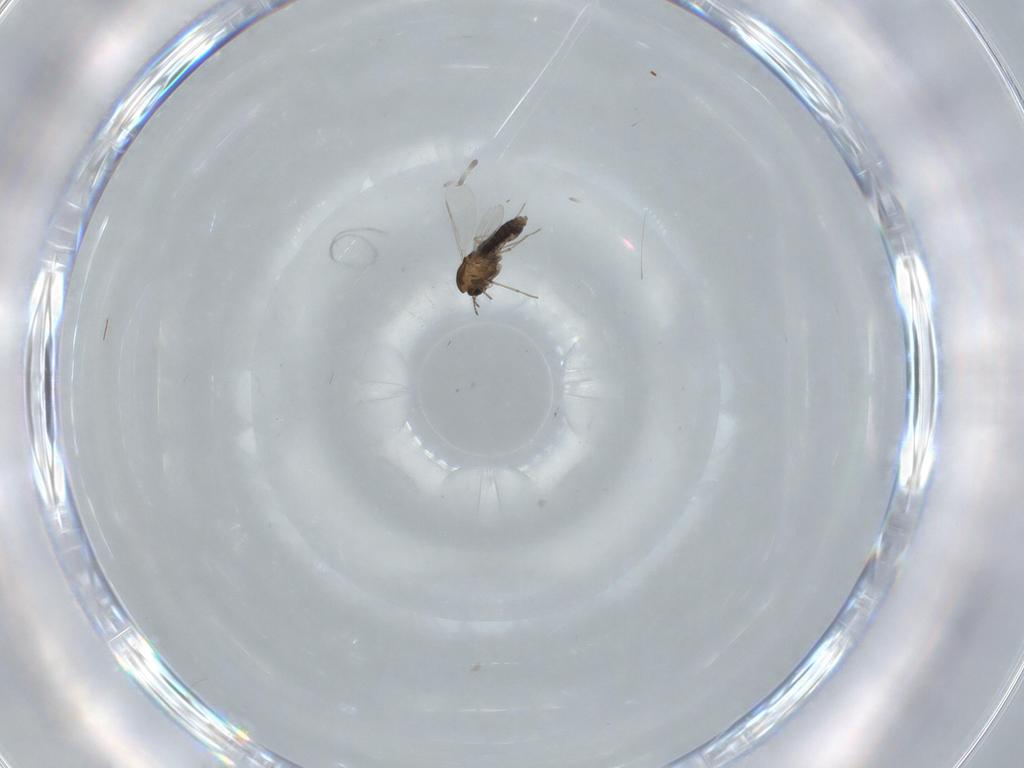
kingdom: Animalia
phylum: Arthropoda
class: Insecta
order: Diptera
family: Chironomidae
